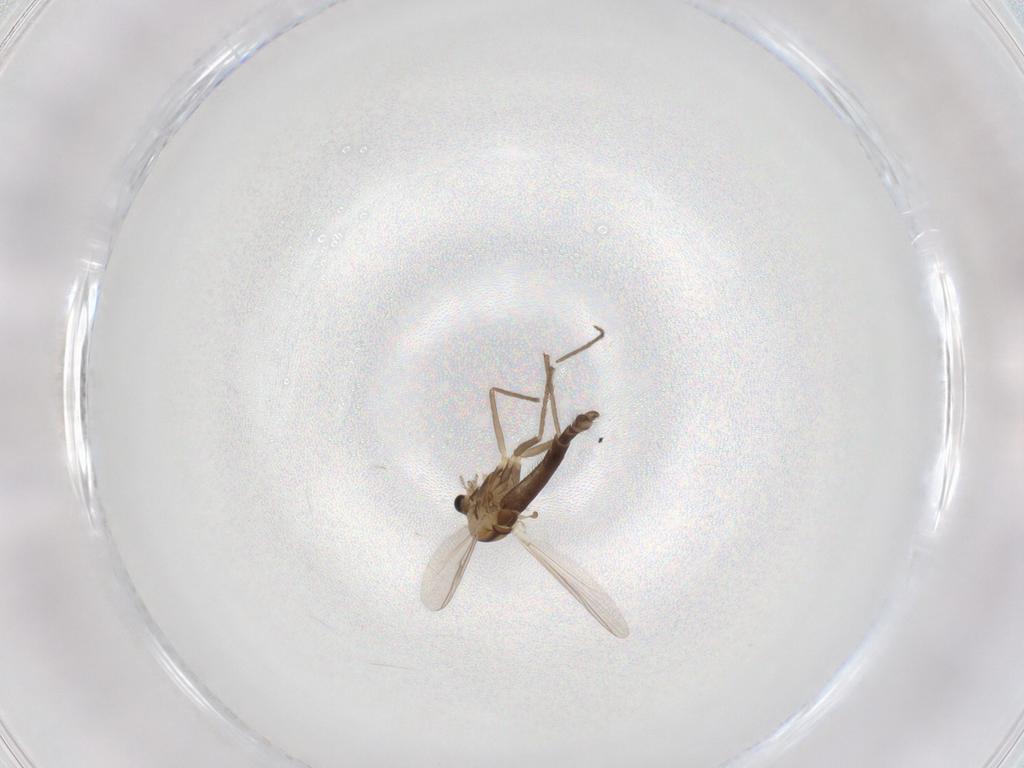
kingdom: Animalia
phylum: Arthropoda
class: Insecta
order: Diptera
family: Chironomidae
